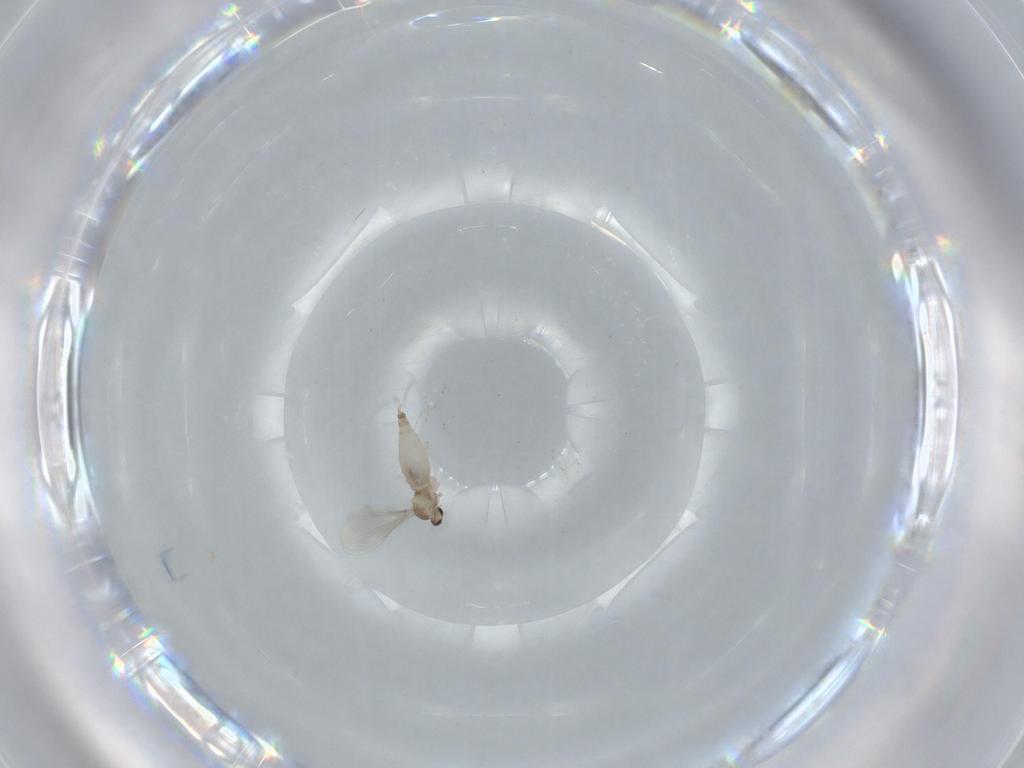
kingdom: Animalia
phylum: Arthropoda
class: Insecta
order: Diptera
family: Cecidomyiidae
